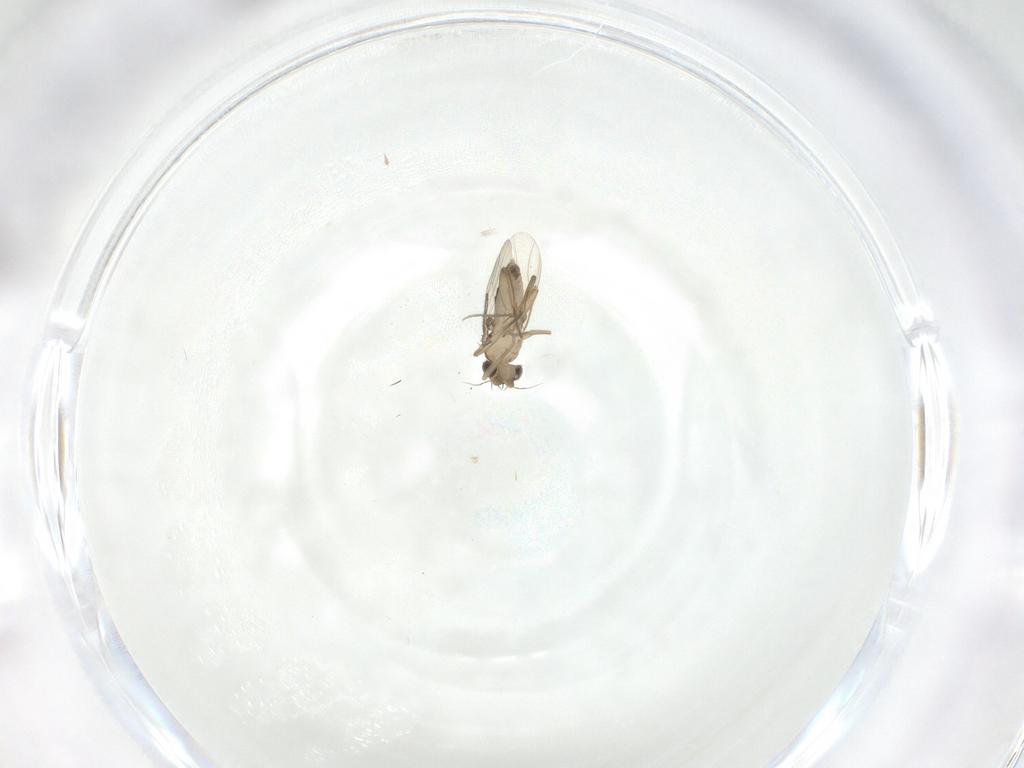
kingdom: Animalia
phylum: Arthropoda
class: Insecta
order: Diptera
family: Phoridae
